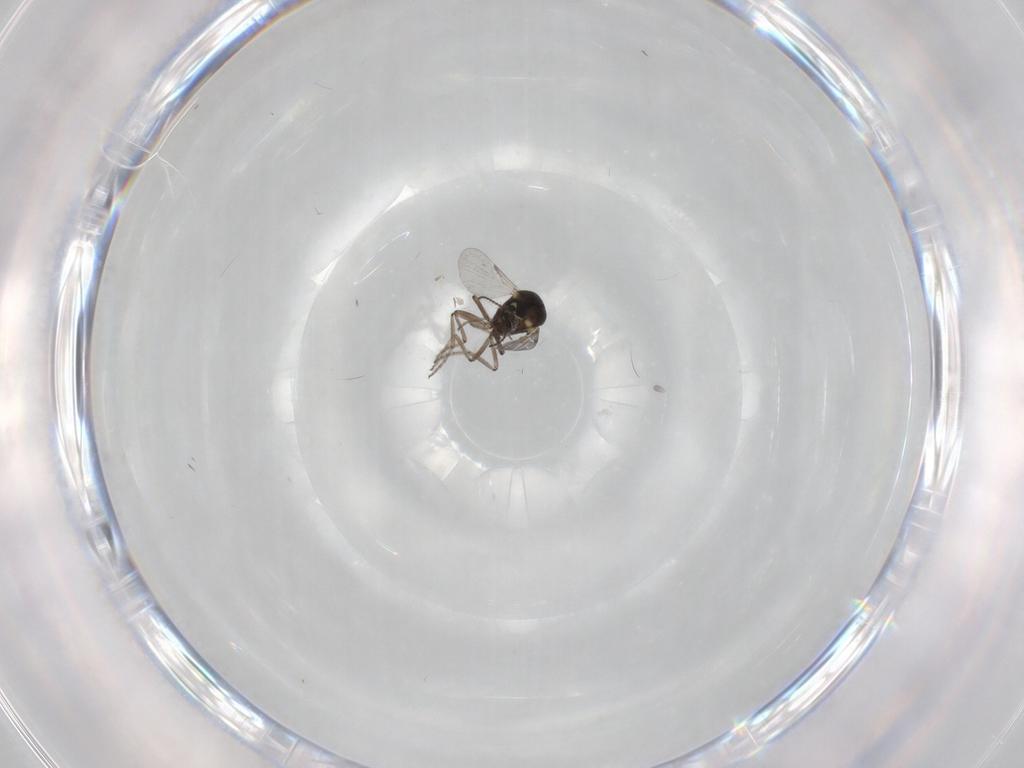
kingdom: Animalia
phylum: Arthropoda
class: Insecta
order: Diptera
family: Ceratopogonidae
